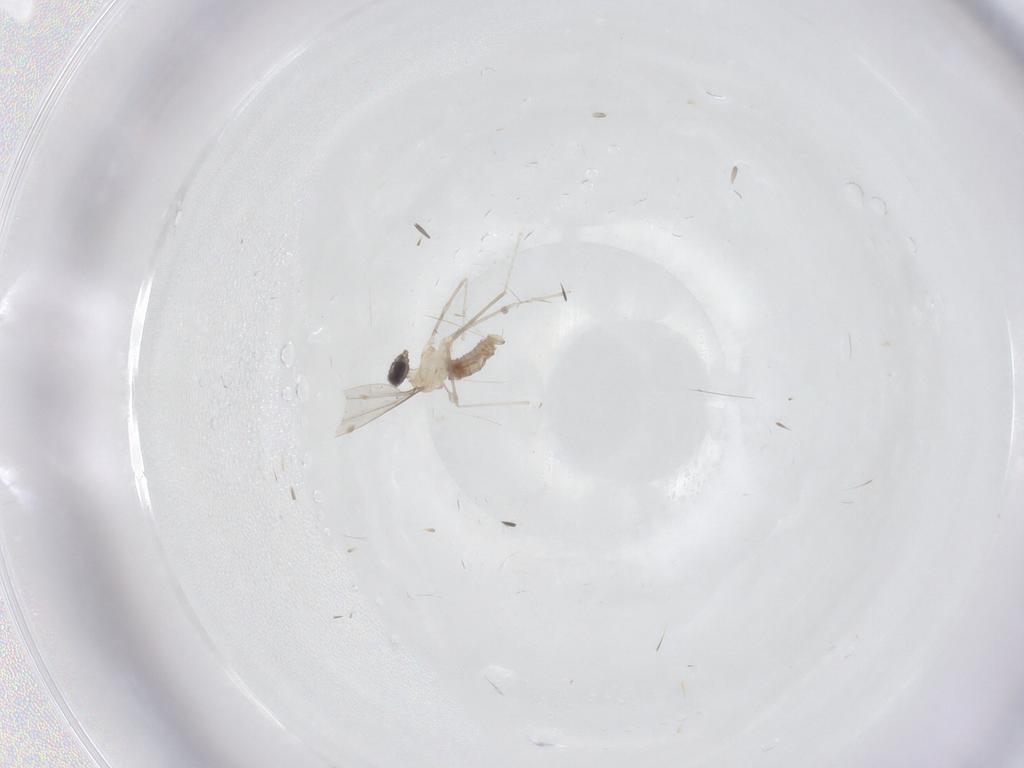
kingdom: Animalia
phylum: Arthropoda
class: Insecta
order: Diptera
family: Cecidomyiidae
